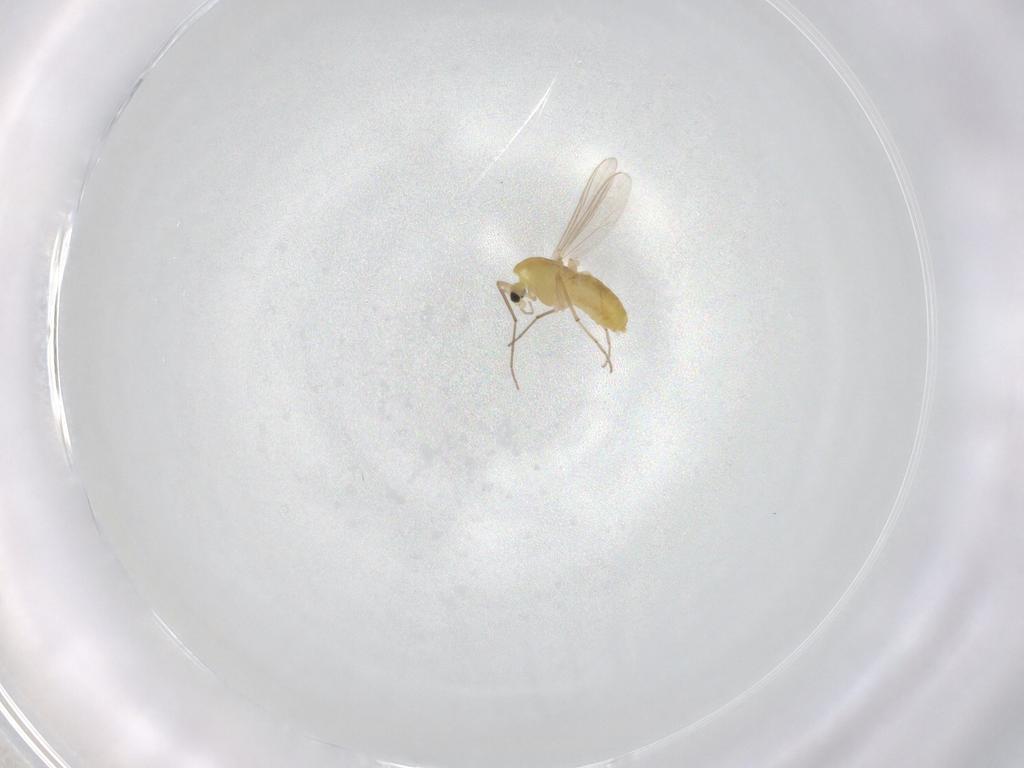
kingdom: Animalia
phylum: Arthropoda
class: Insecta
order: Diptera
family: Chironomidae
